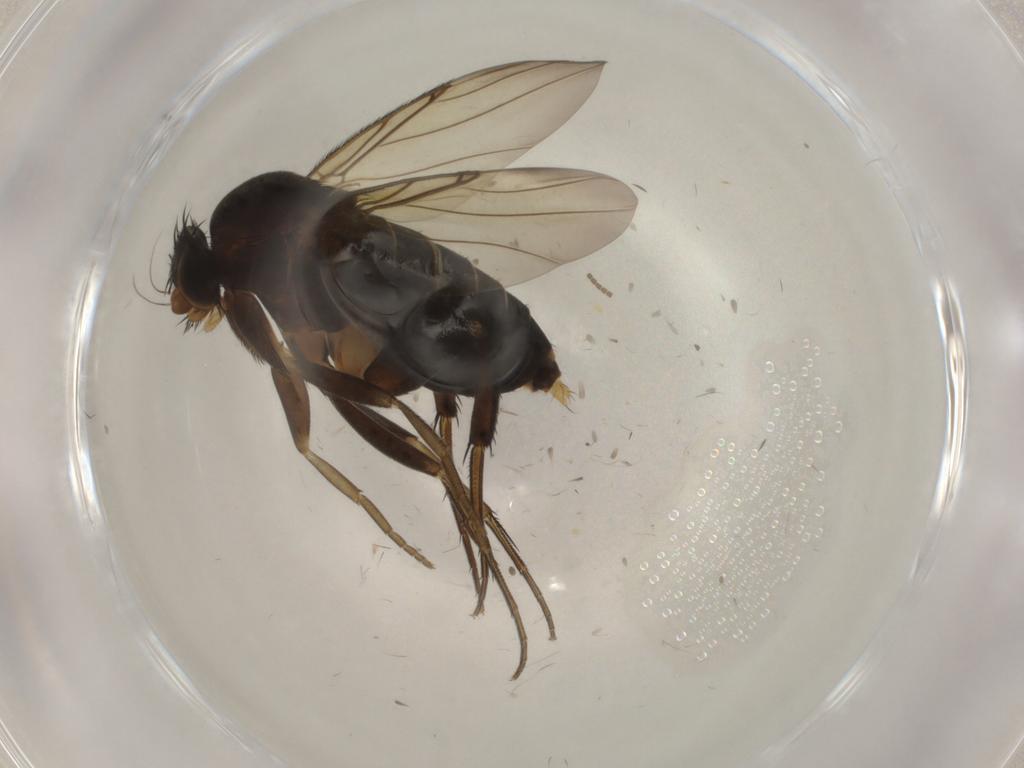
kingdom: Animalia
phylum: Arthropoda
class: Insecta
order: Diptera
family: Phoridae
